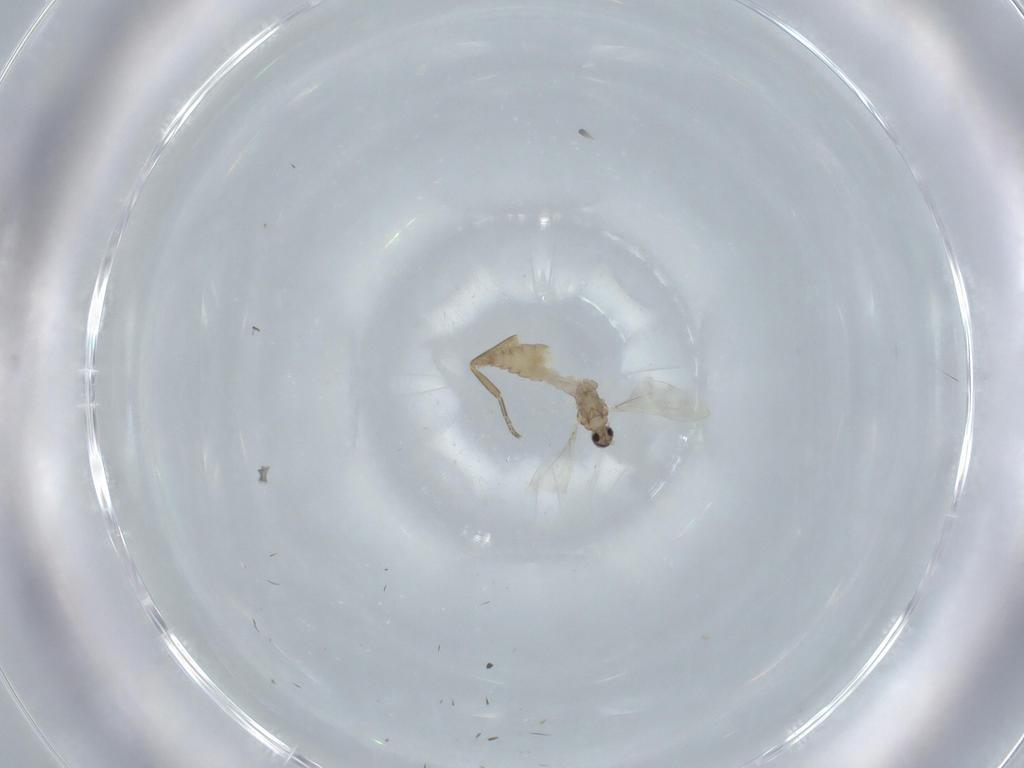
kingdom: Animalia
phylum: Arthropoda
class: Insecta
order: Diptera
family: Cecidomyiidae
